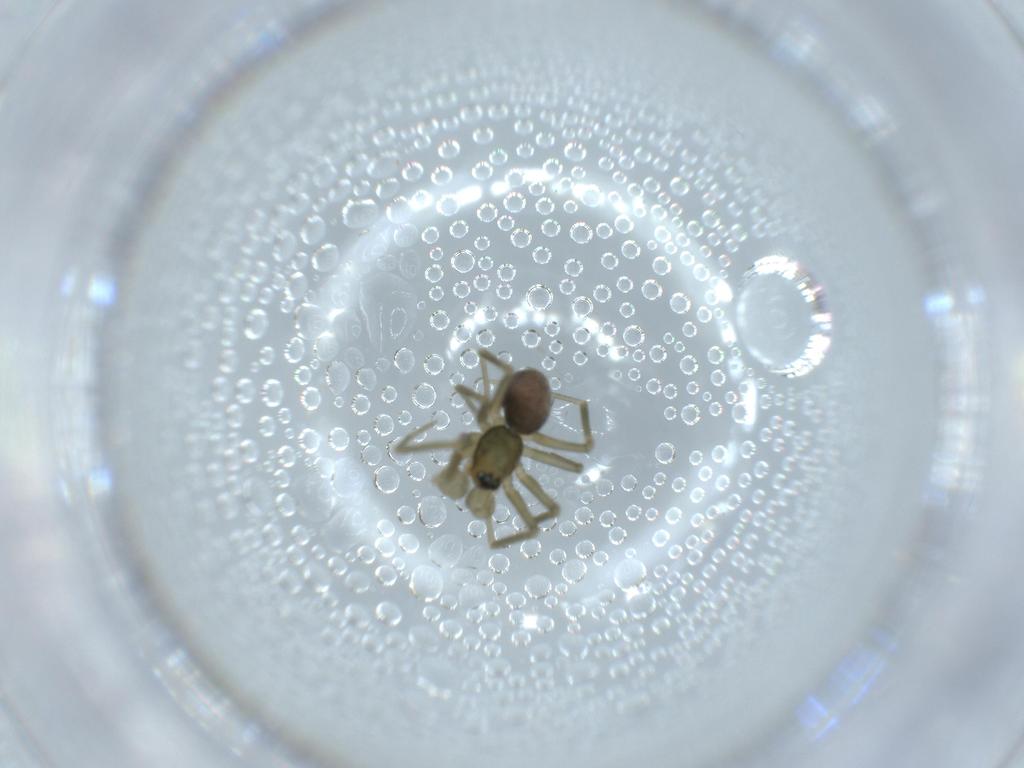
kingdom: Animalia
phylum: Arthropoda
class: Arachnida
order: Araneae
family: Linyphiidae
